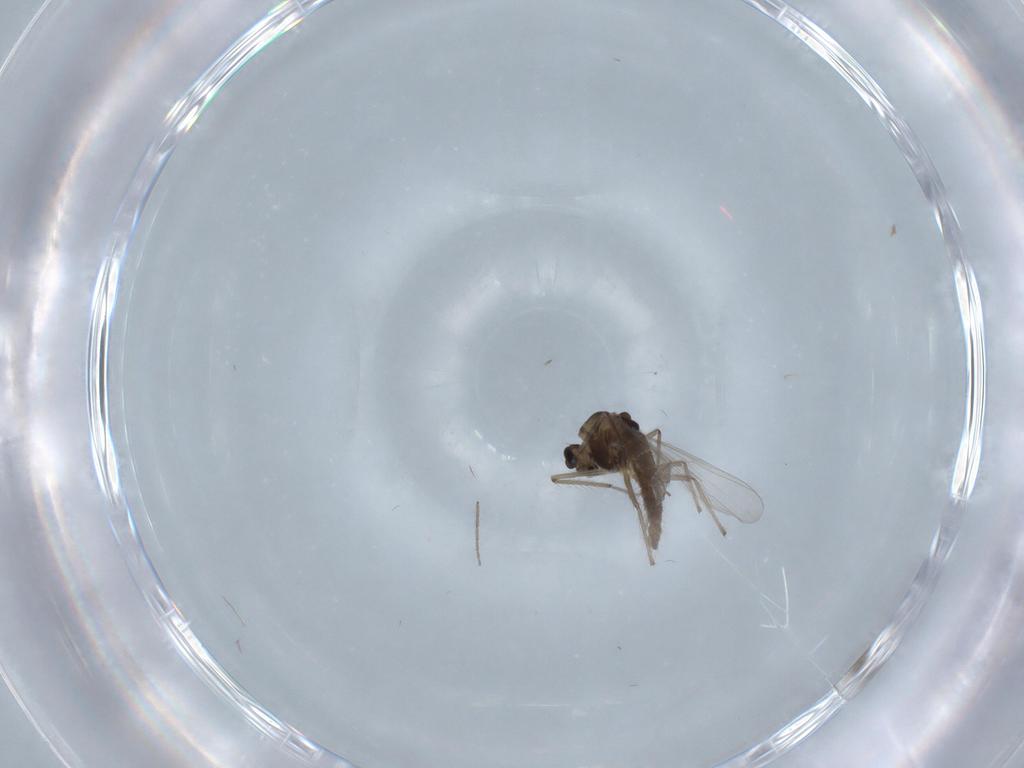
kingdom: Animalia
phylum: Arthropoda
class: Insecta
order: Diptera
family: Chironomidae
